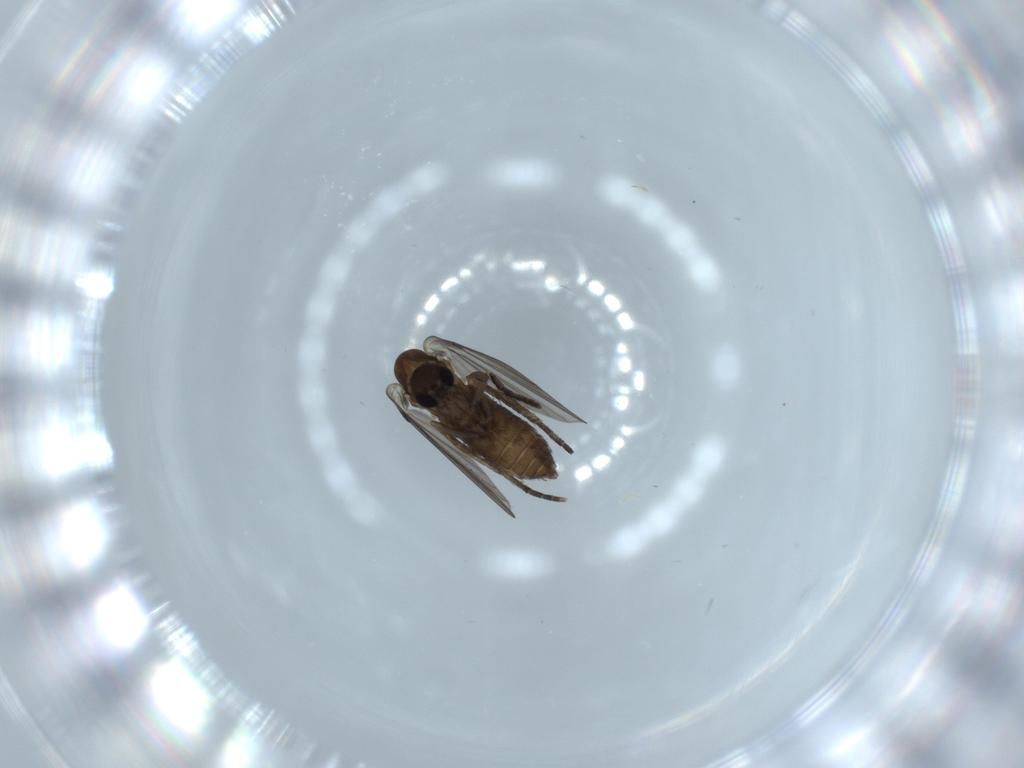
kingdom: Animalia
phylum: Arthropoda
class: Insecta
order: Diptera
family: Psychodidae
